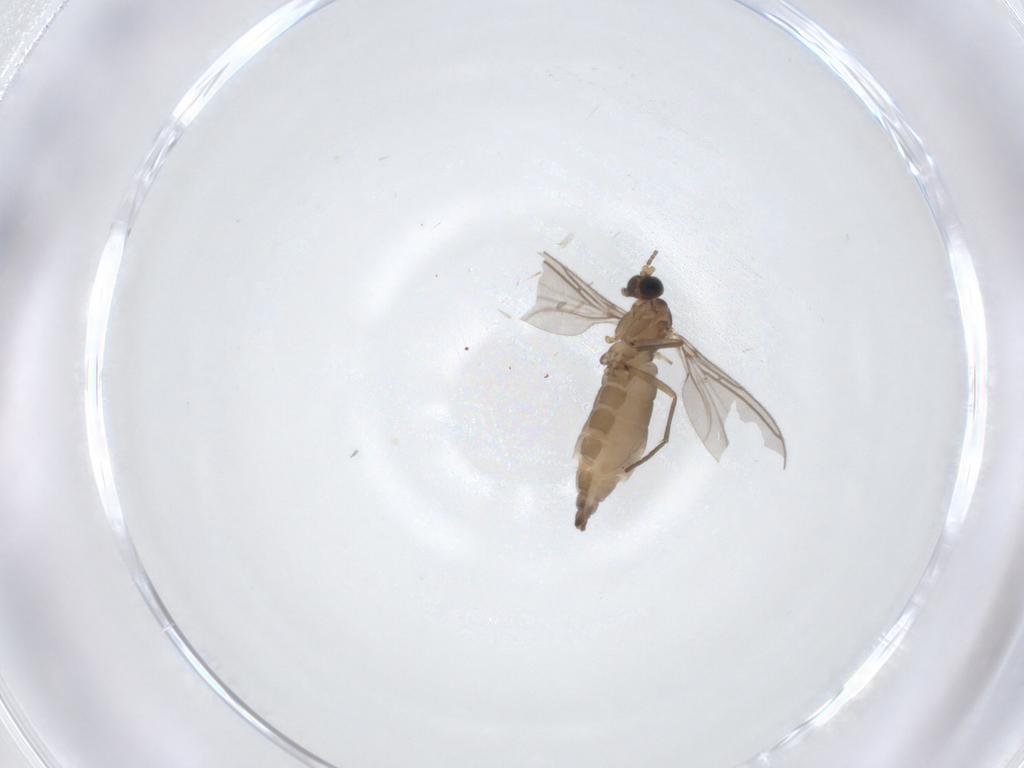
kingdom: Animalia
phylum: Arthropoda
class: Insecta
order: Diptera
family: Sciaridae
